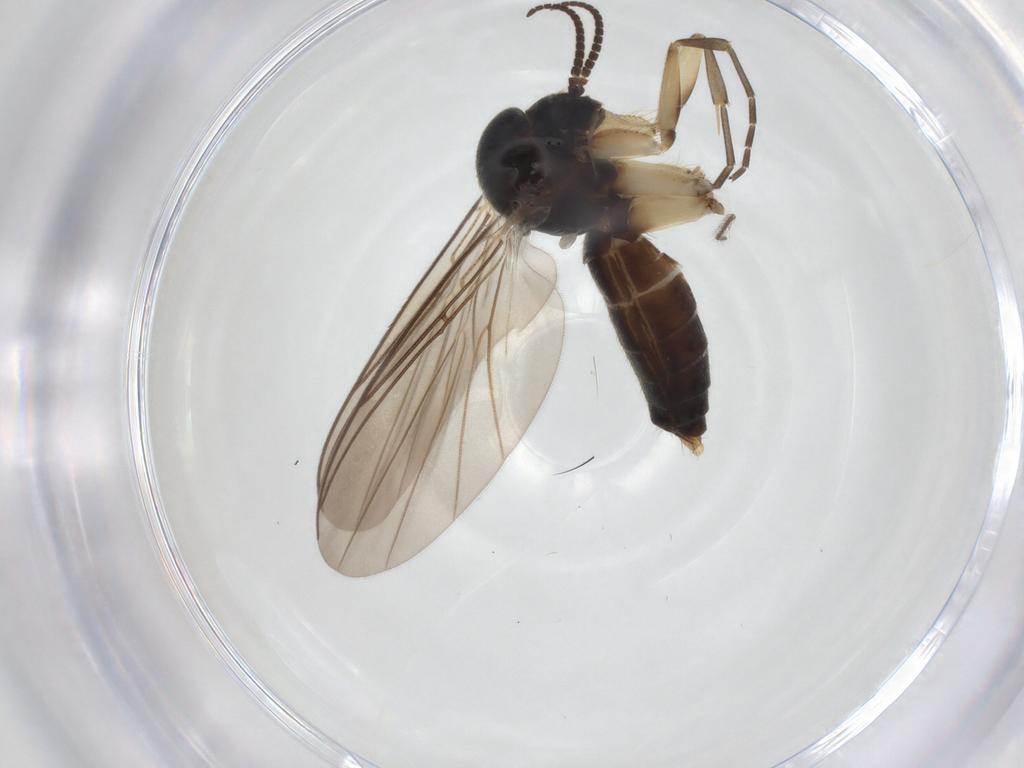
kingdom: Animalia
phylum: Arthropoda
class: Insecta
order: Diptera
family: Mycetophilidae
